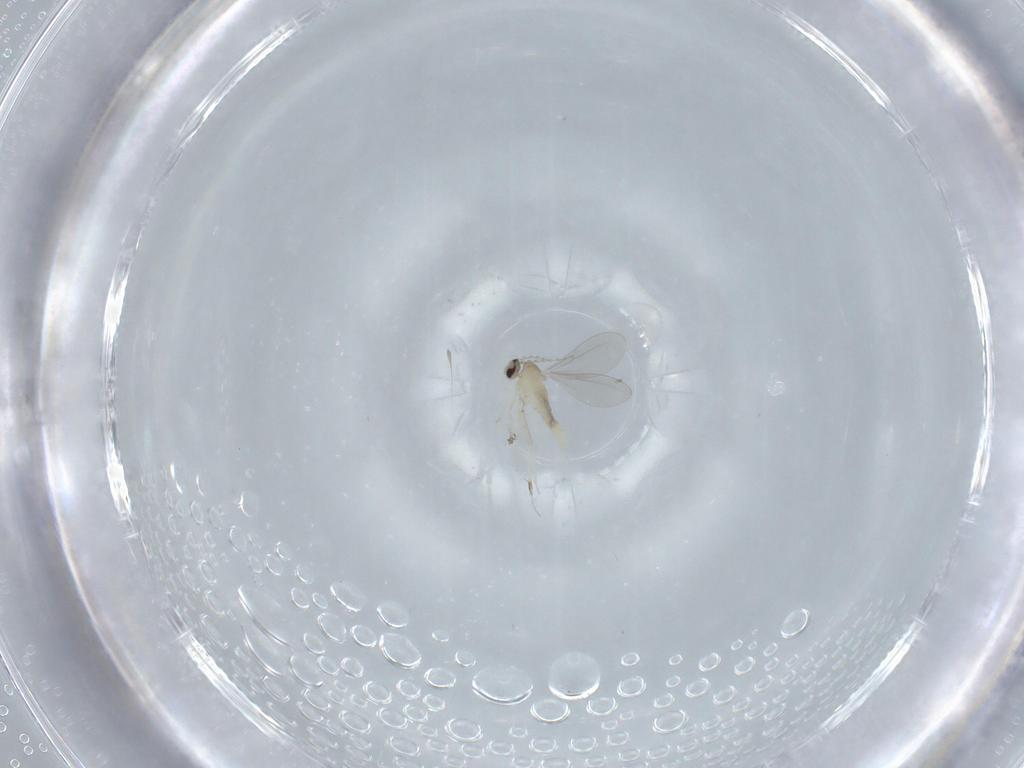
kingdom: Animalia
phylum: Arthropoda
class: Insecta
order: Diptera
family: Cecidomyiidae
